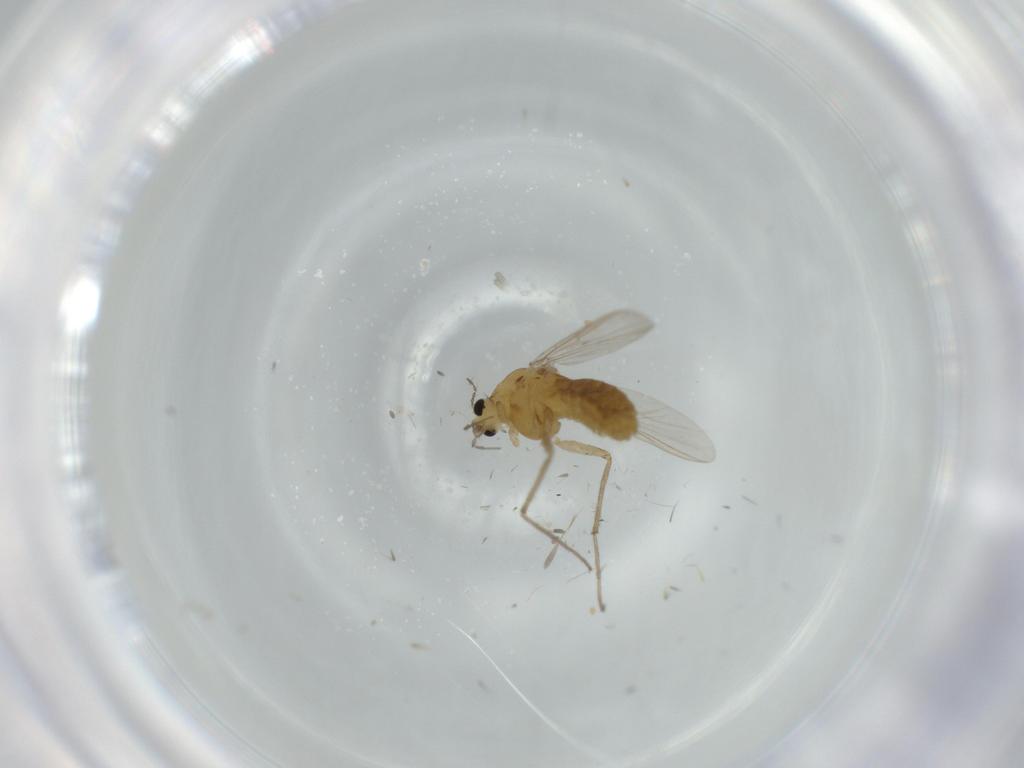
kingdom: Animalia
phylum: Arthropoda
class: Insecta
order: Diptera
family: Chironomidae
